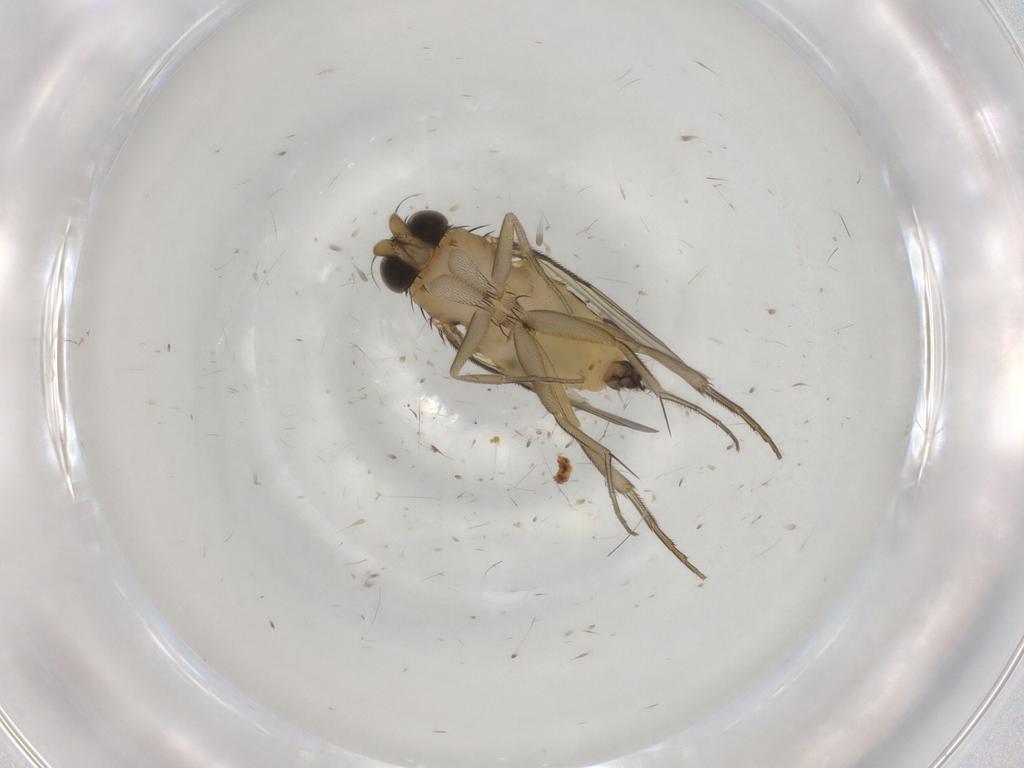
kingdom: Animalia
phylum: Arthropoda
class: Insecta
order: Diptera
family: Phoridae
